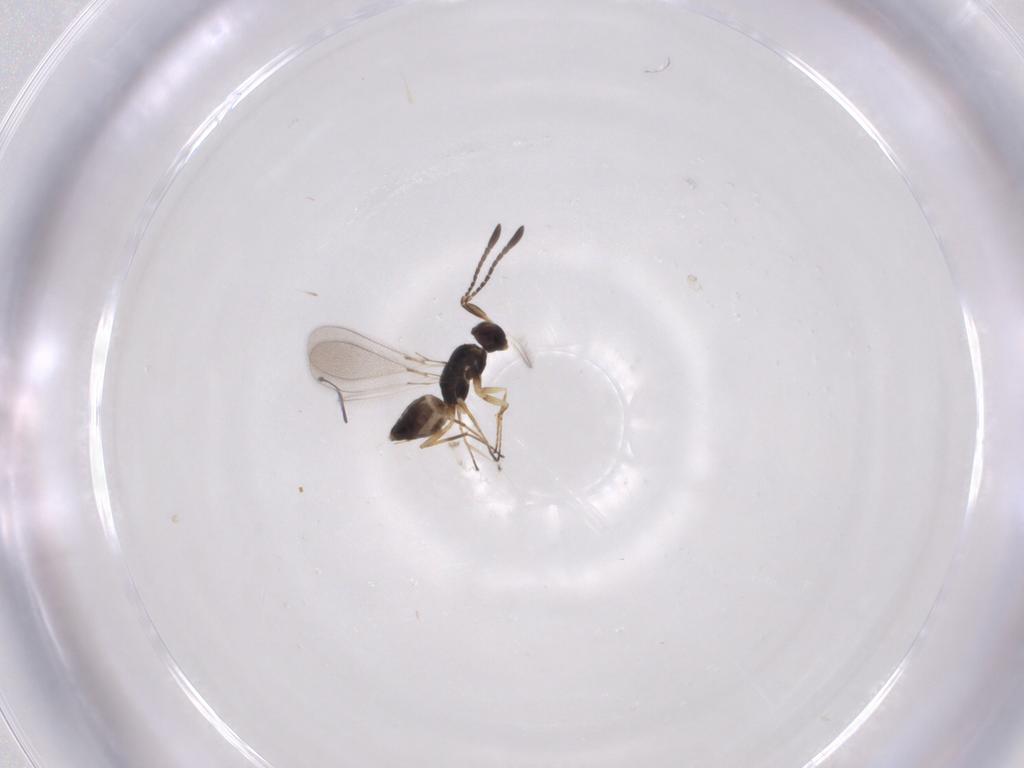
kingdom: Animalia
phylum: Arthropoda
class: Insecta
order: Hymenoptera
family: Mymaridae
